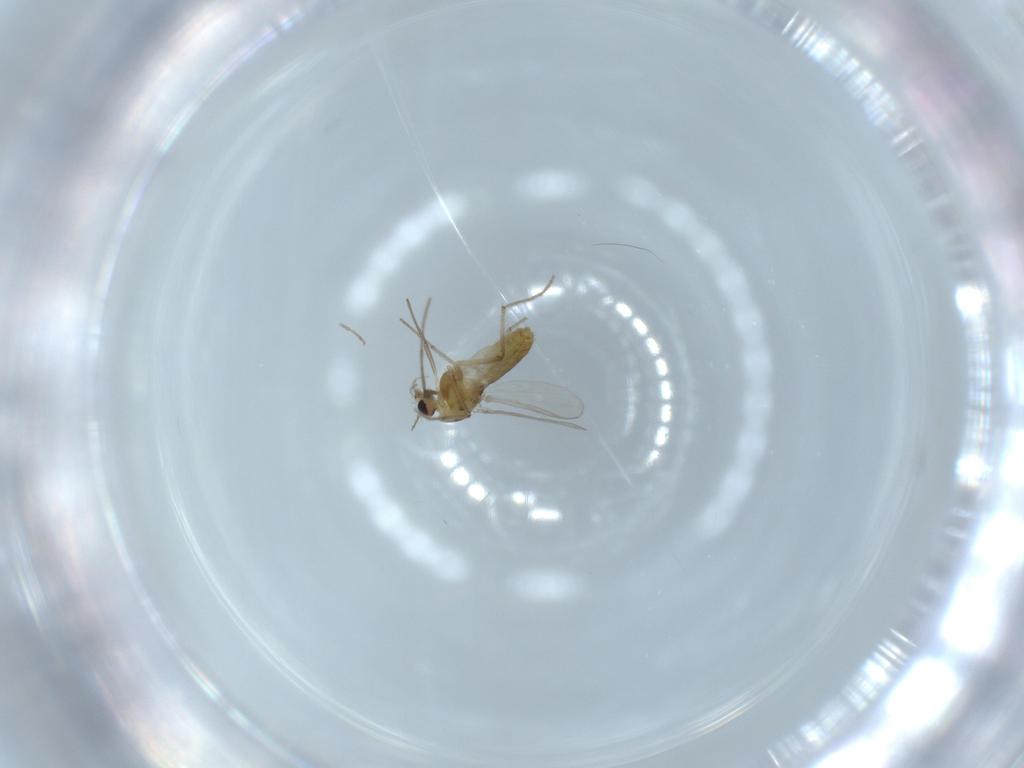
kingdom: Animalia
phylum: Arthropoda
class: Insecta
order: Diptera
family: Chironomidae
